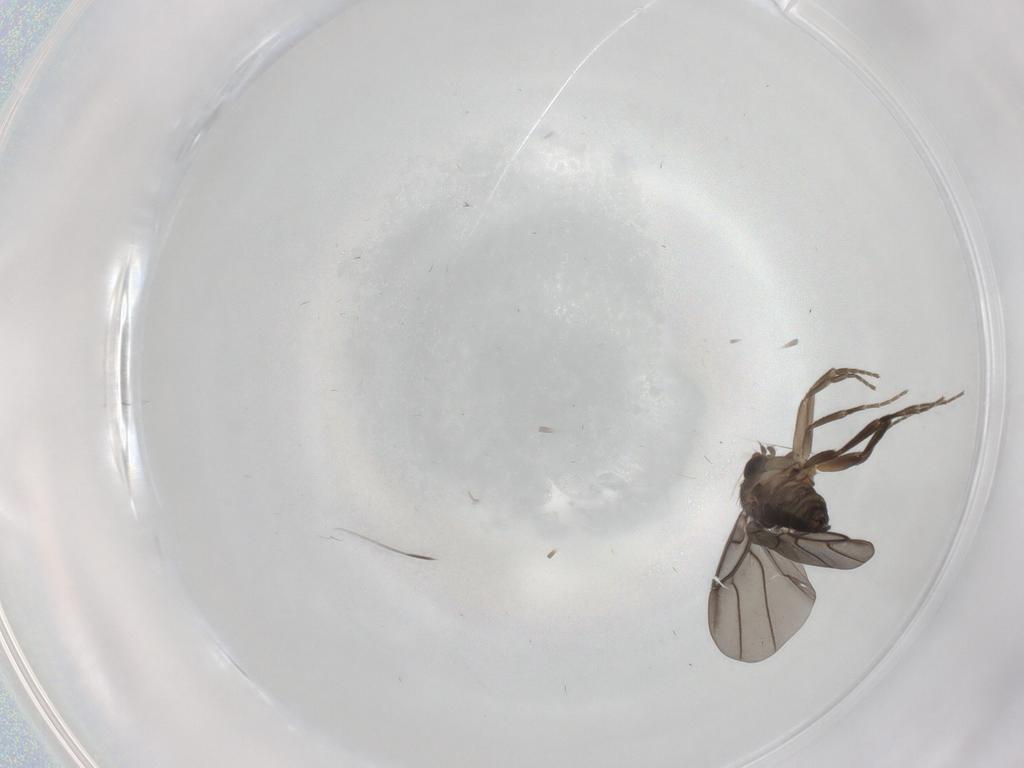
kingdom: Animalia
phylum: Arthropoda
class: Insecta
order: Diptera
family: Phoridae
